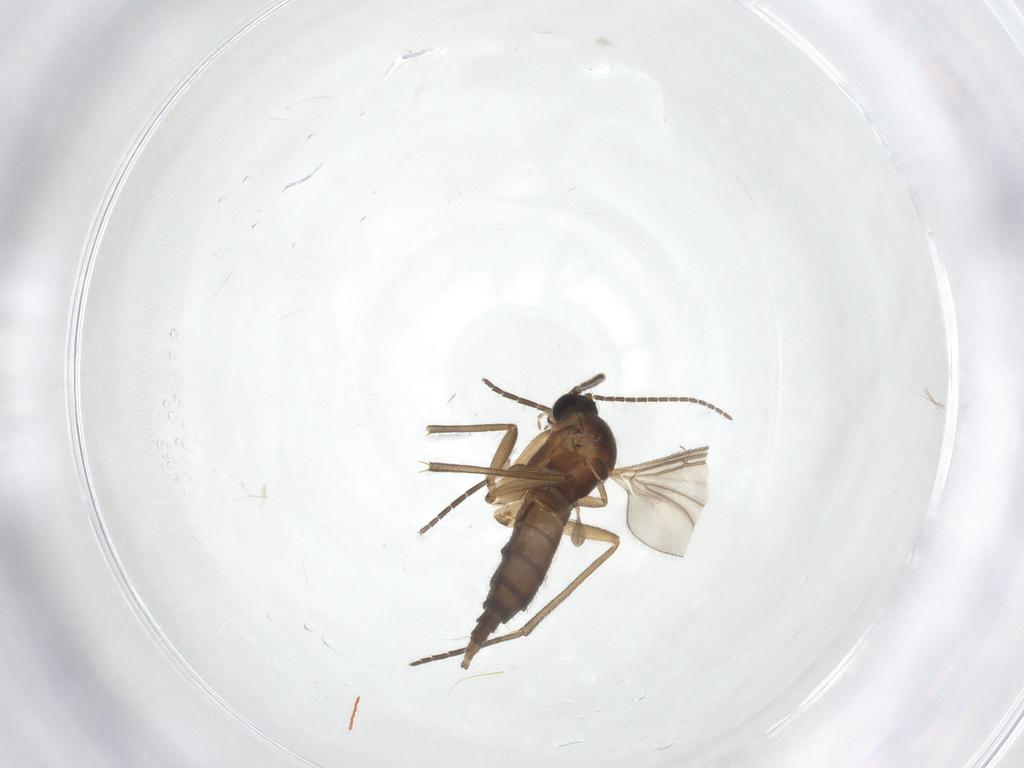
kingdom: Animalia
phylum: Arthropoda
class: Insecta
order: Diptera
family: Sciaridae
